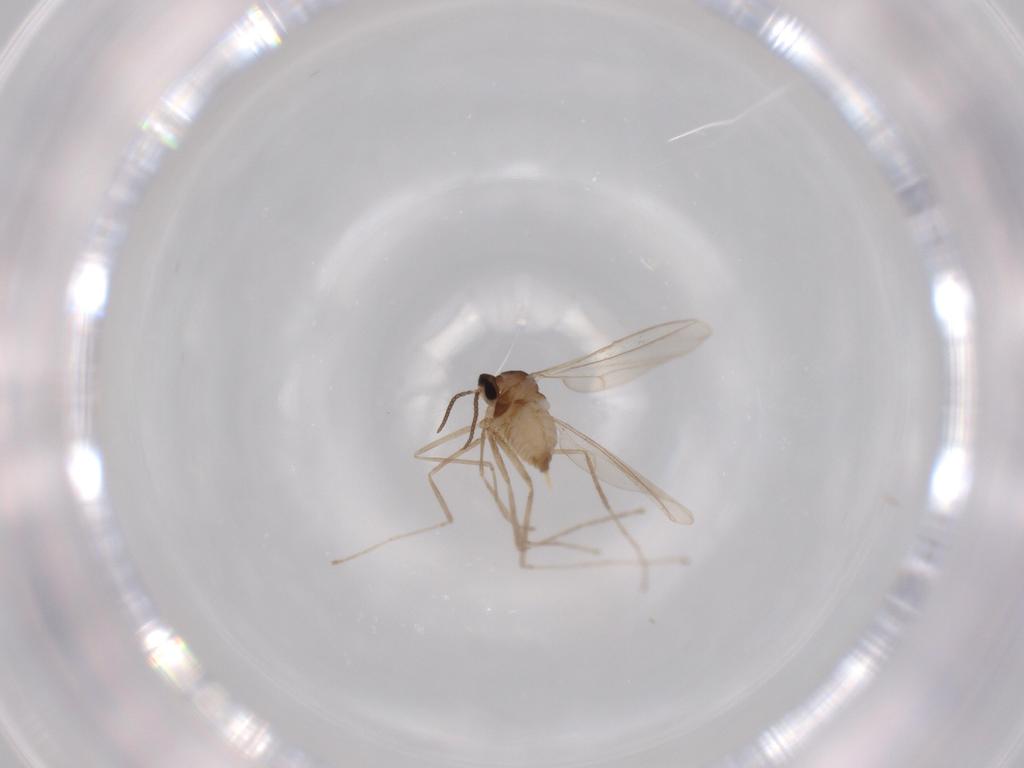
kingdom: Animalia
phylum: Arthropoda
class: Insecta
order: Diptera
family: Cecidomyiidae
